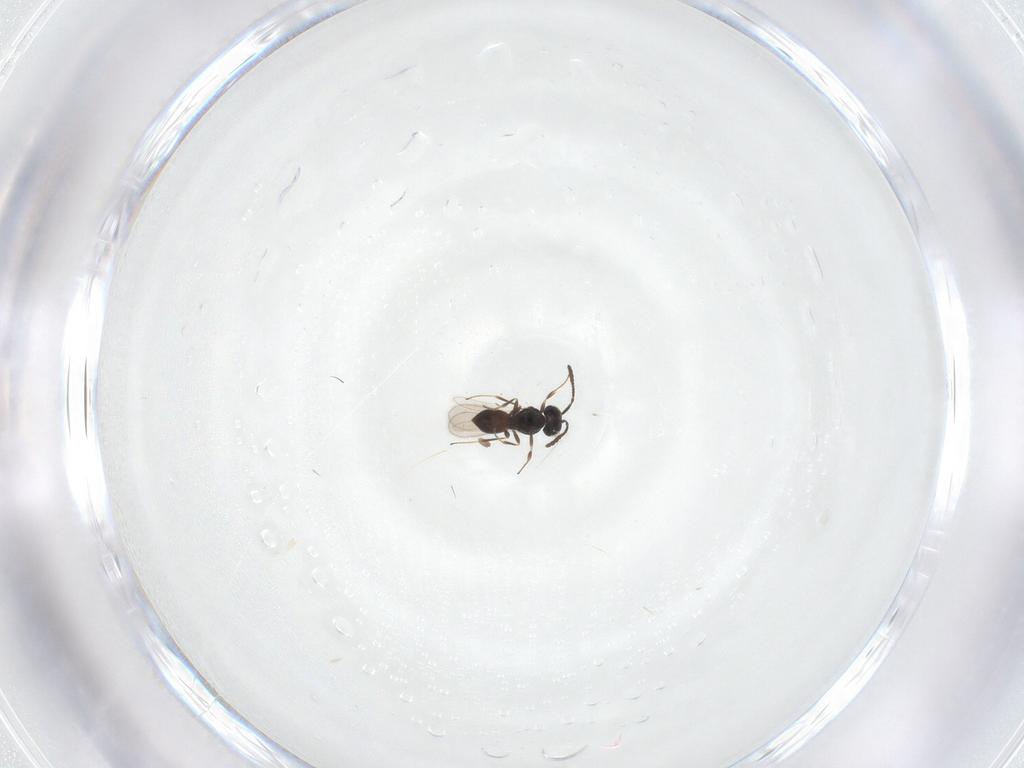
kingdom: Animalia
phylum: Arthropoda
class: Insecta
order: Hymenoptera
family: Scelionidae
